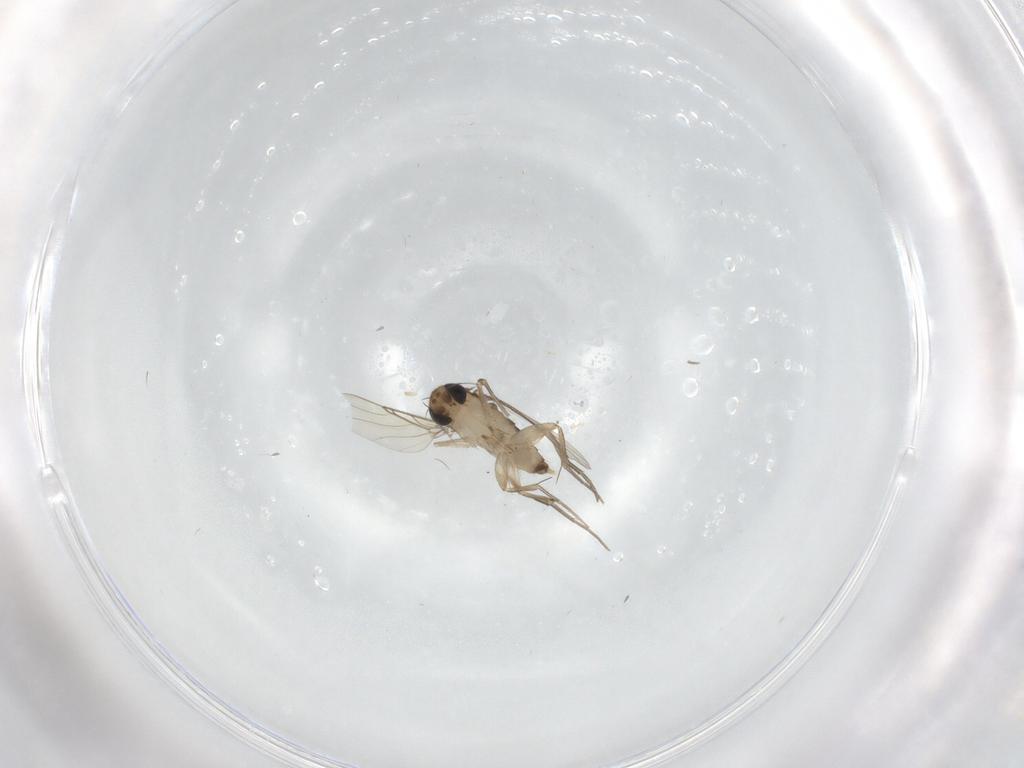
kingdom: Animalia
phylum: Arthropoda
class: Insecta
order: Diptera
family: Phoridae
